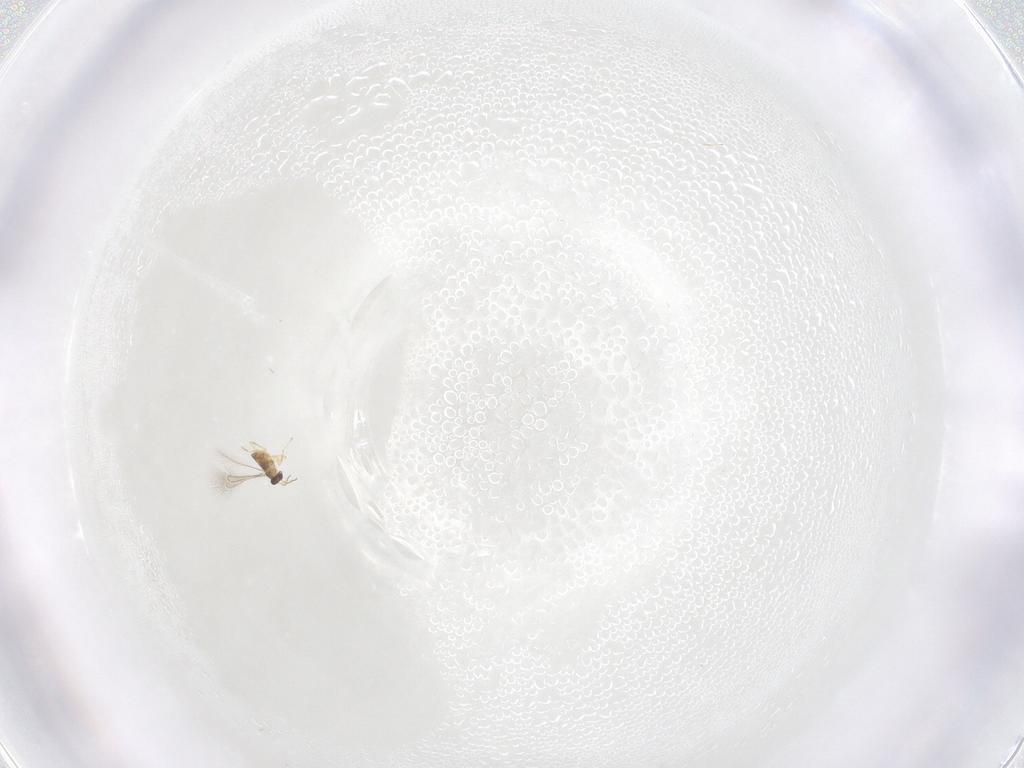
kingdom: Animalia
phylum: Arthropoda
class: Insecta
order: Hymenoptera
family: Mymaridae
